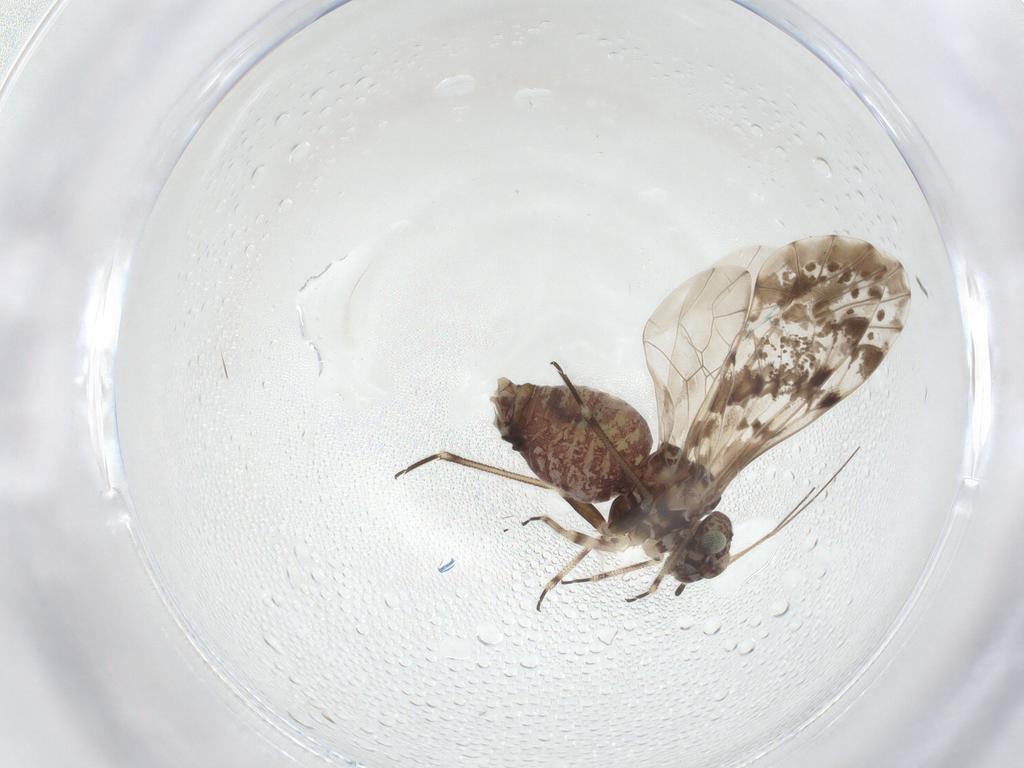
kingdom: Animalia
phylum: Arthropoda
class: Insecta
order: Psocodea
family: Psocidae
